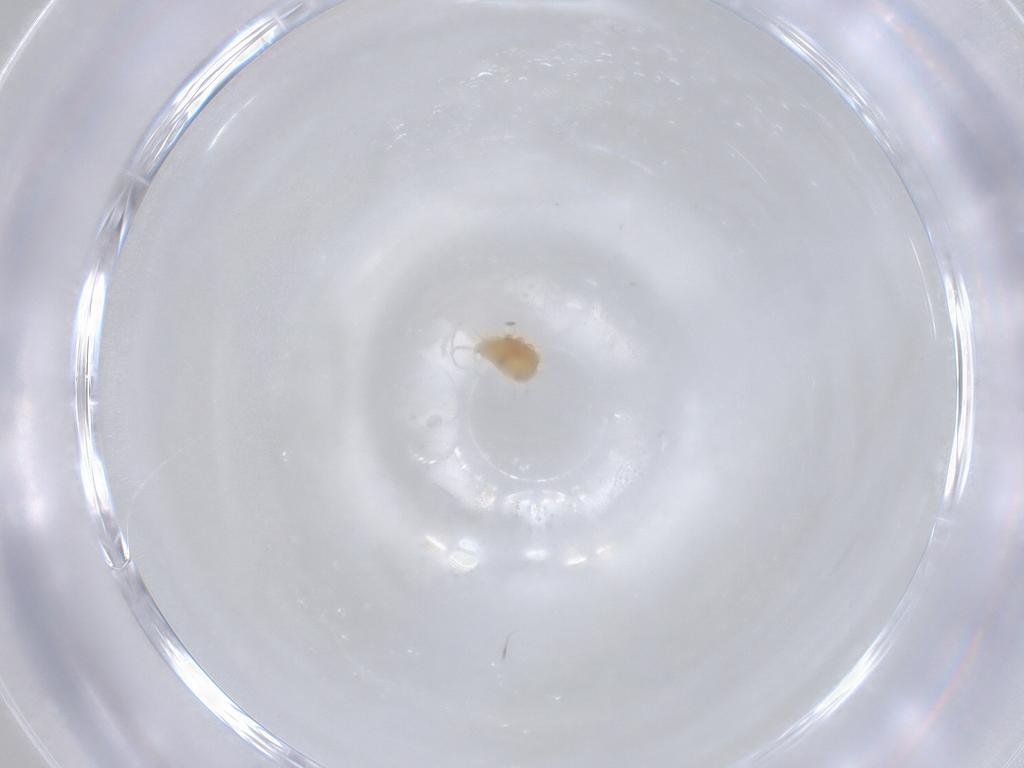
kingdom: Animalia
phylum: Arthropoda
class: Arachnida
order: Trombidiformes
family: Tetranychidae
